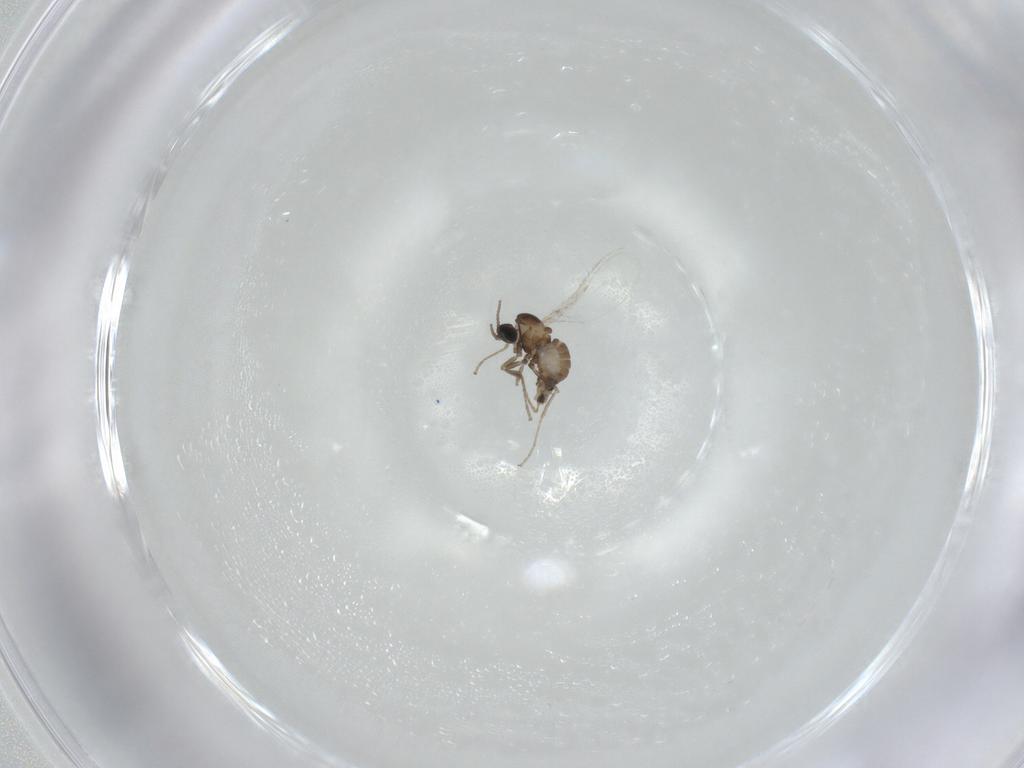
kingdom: Animalia
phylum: Arthropoda
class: Insecta
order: Diptera
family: Cecidomyiidae
